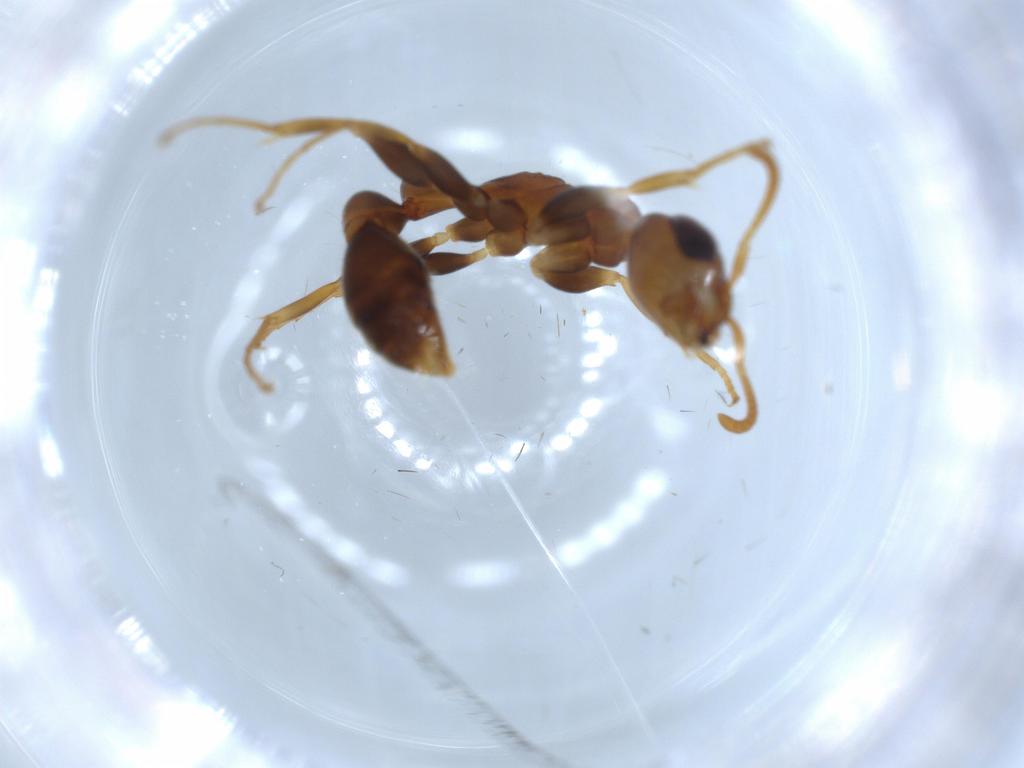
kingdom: Animalia
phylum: Arthropoda
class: Insecta
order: Hymenoptera
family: Formicidae
